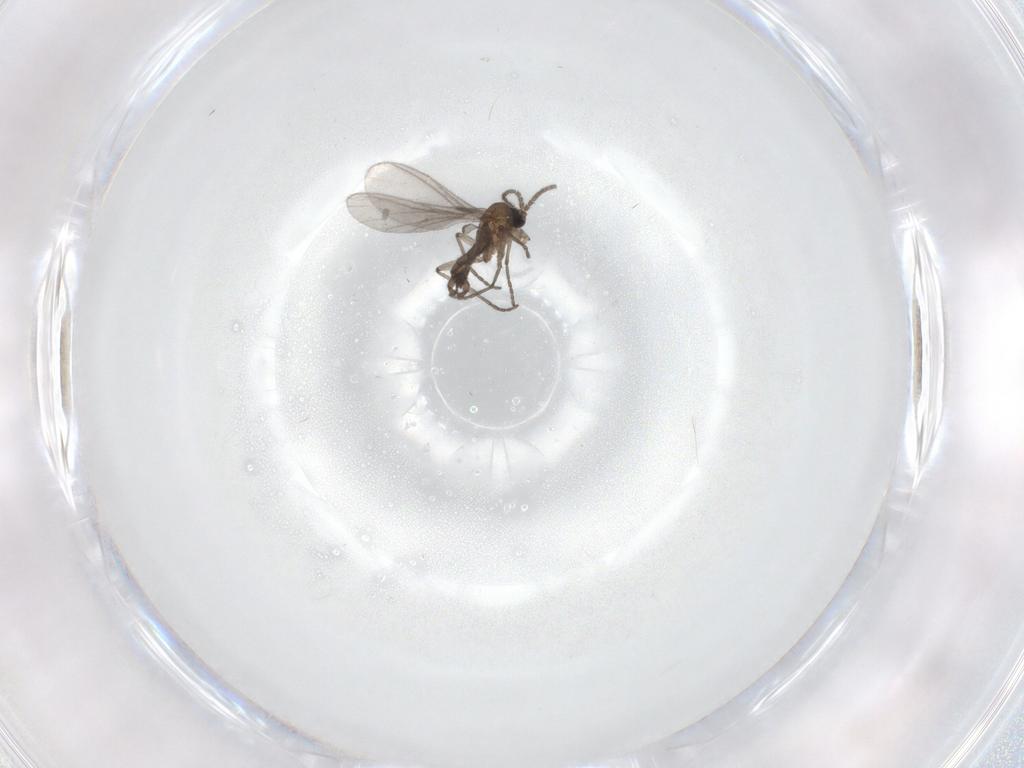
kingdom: Animalia
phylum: Arthropoda
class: Insecta
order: Diptera
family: Sciaridae
